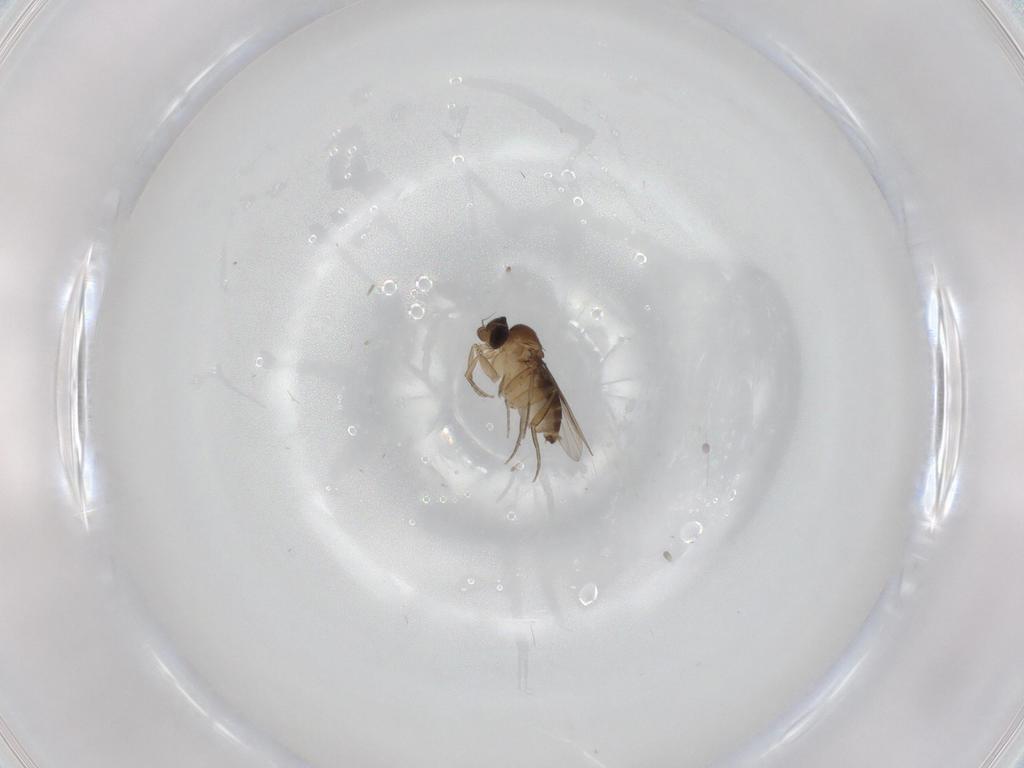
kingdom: Animalia
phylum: Arthropoda
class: Insecta
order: Diptera
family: Phoridae
